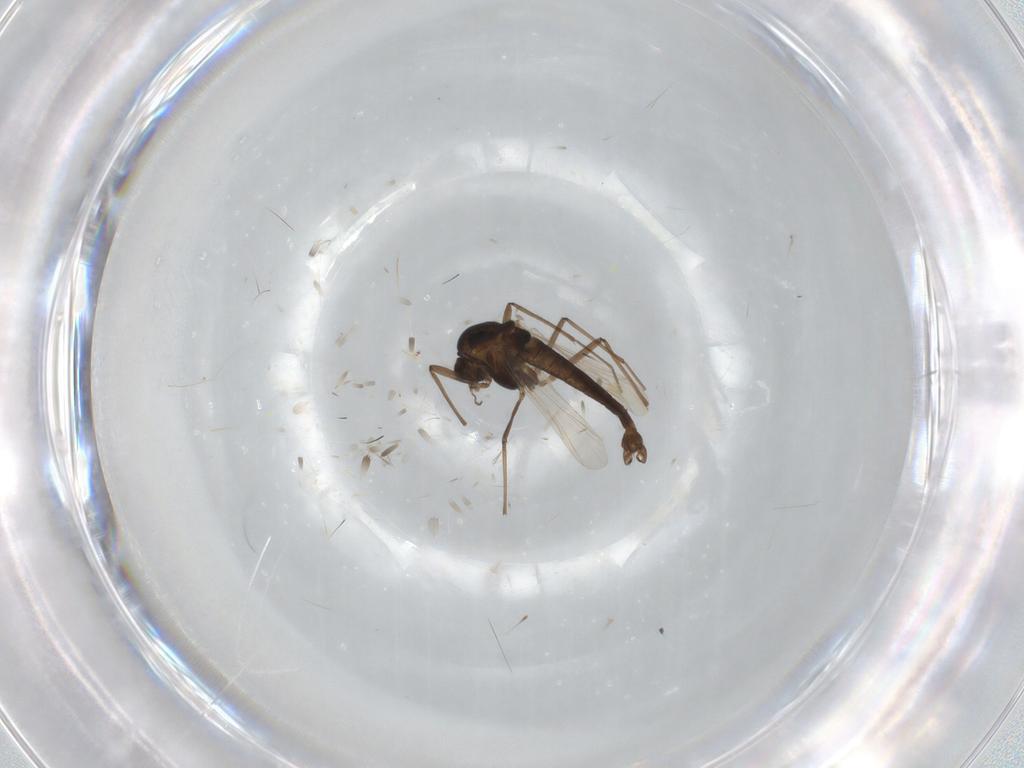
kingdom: Animalia
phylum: Arthropoda
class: Insecta
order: Diptera
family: Chironomidae
